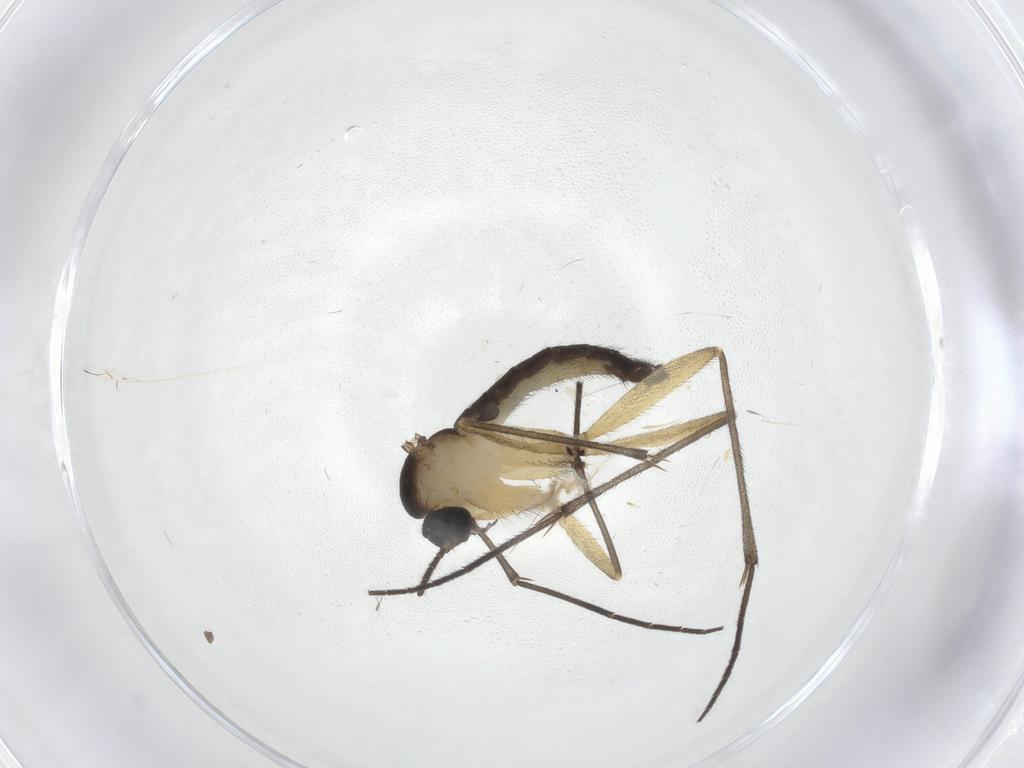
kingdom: Animalia
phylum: Arthropoda
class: Insecta
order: Diptera
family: Sciaridae
